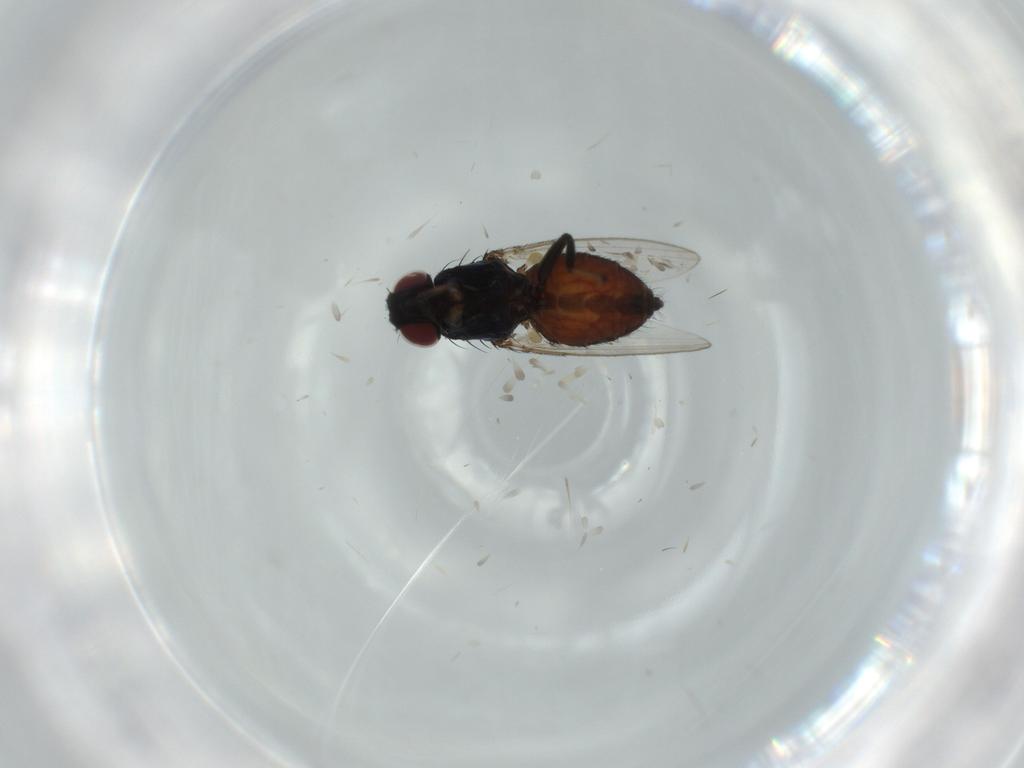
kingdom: Animalia
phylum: Arthropoda
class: Insecta
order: Diptera
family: Milichiidae
